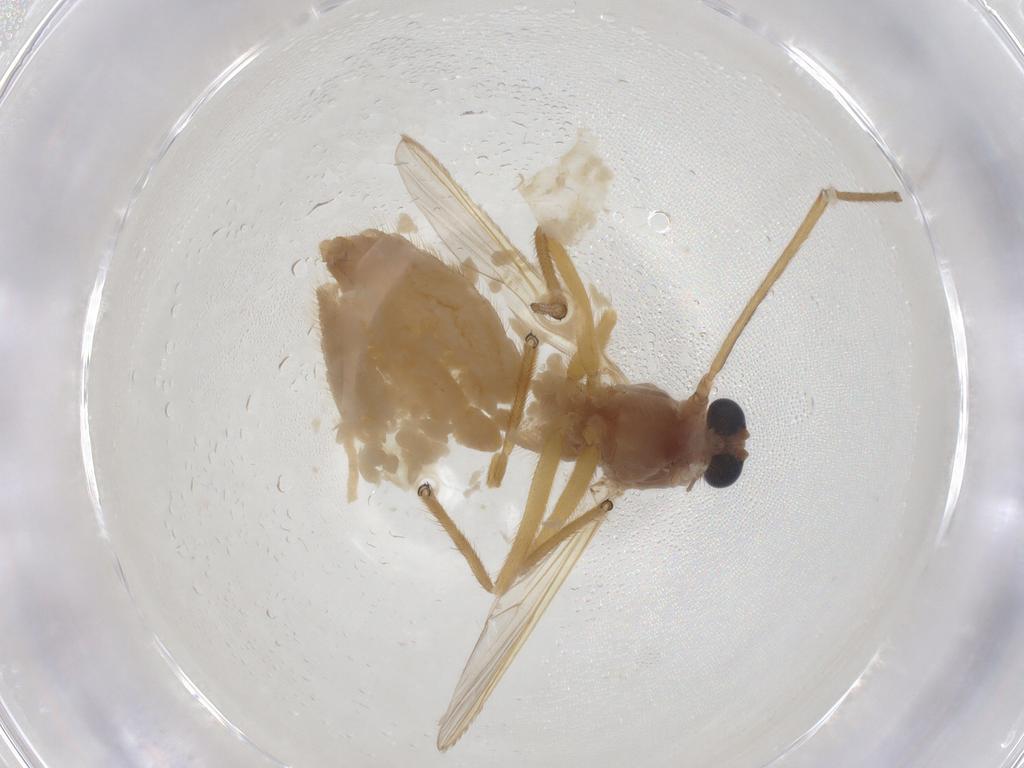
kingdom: Animalia
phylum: Arthropoda
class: Insecta
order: Diptera
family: Chironomidae
